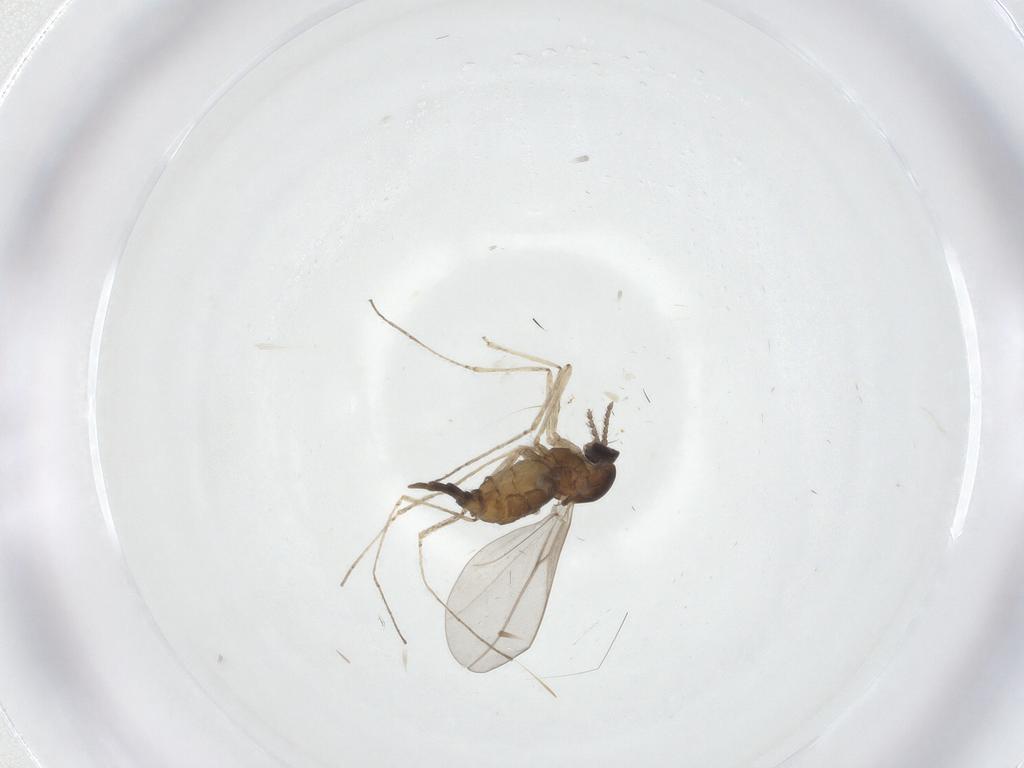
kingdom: Animalia
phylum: Arthropoda
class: Insecta
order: Diptera
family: Cecidomyiidae
